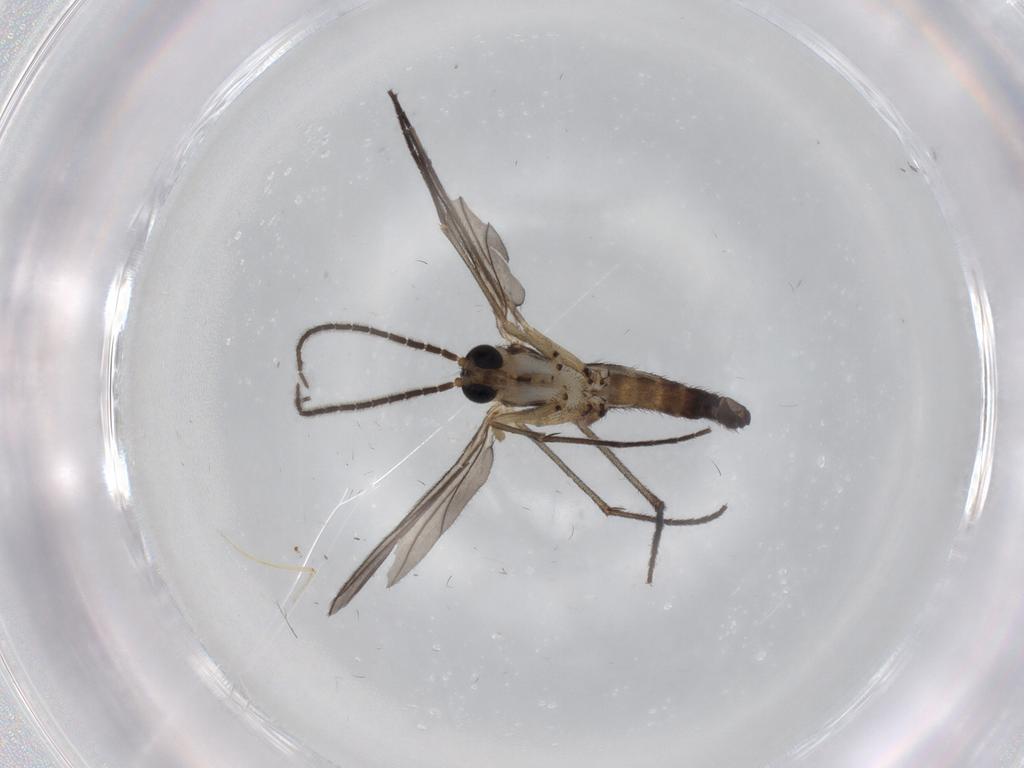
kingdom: Animalia
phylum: Arthropoda
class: Insecta
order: Diptera
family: Sciaridae
